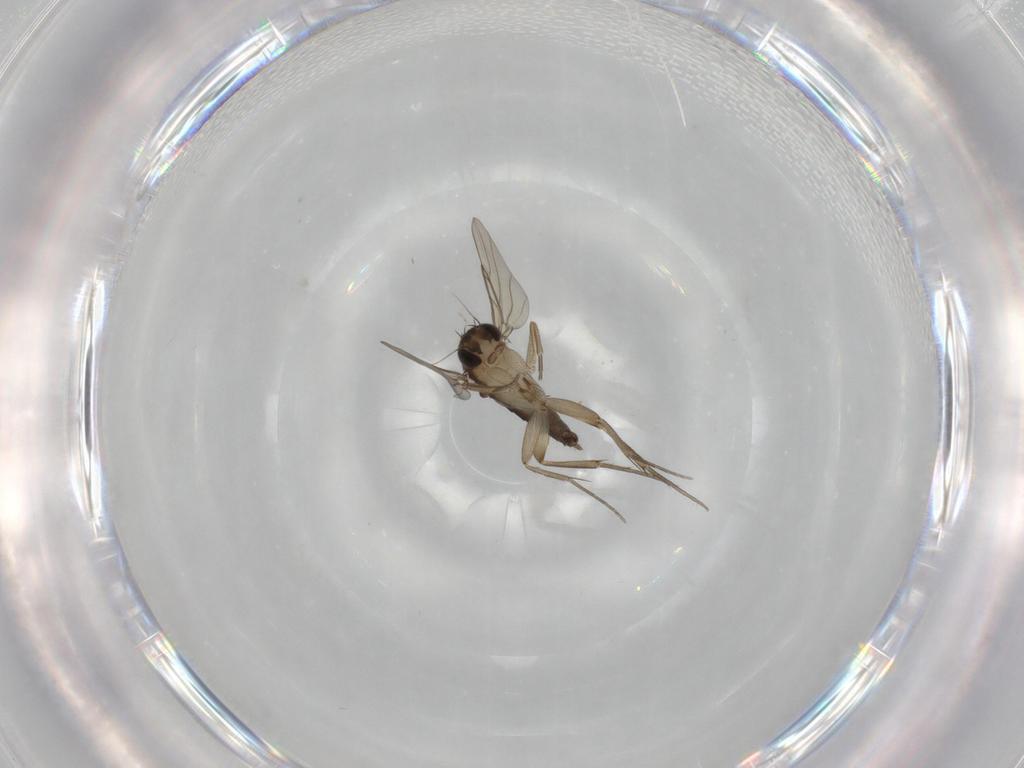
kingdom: Animalia
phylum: Arthropoda
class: Insecta
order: Diptera
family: Phoridae
